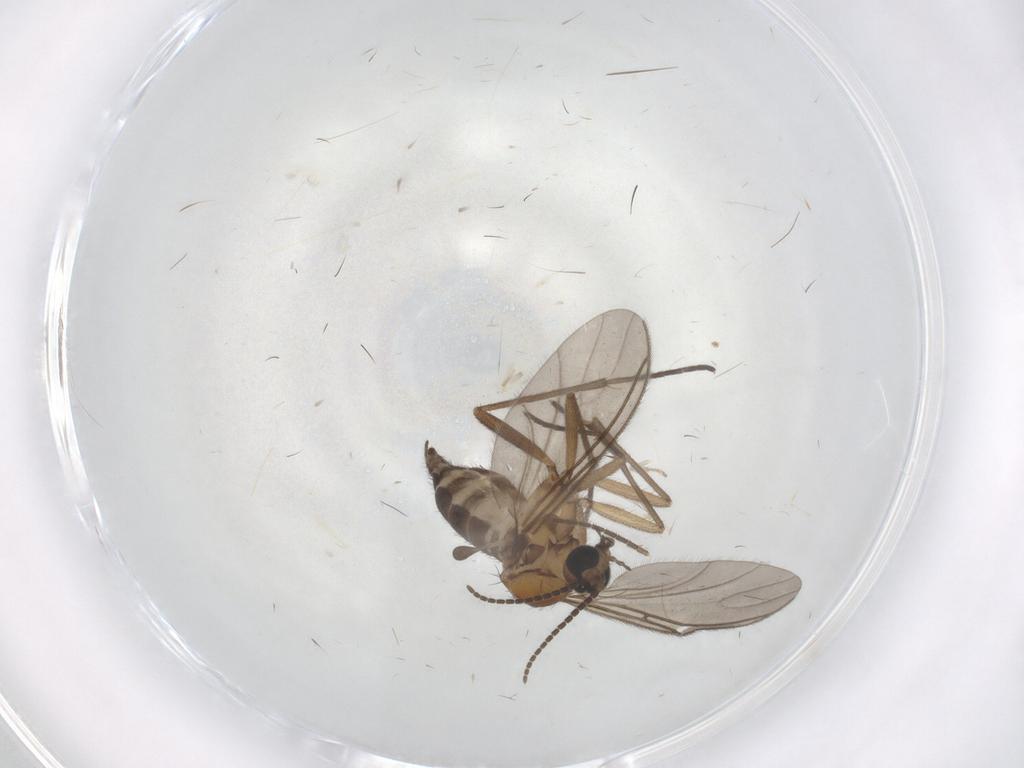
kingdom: Animalia
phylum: Arthropoda
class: Insecta
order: Diptera
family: Sciaridae
